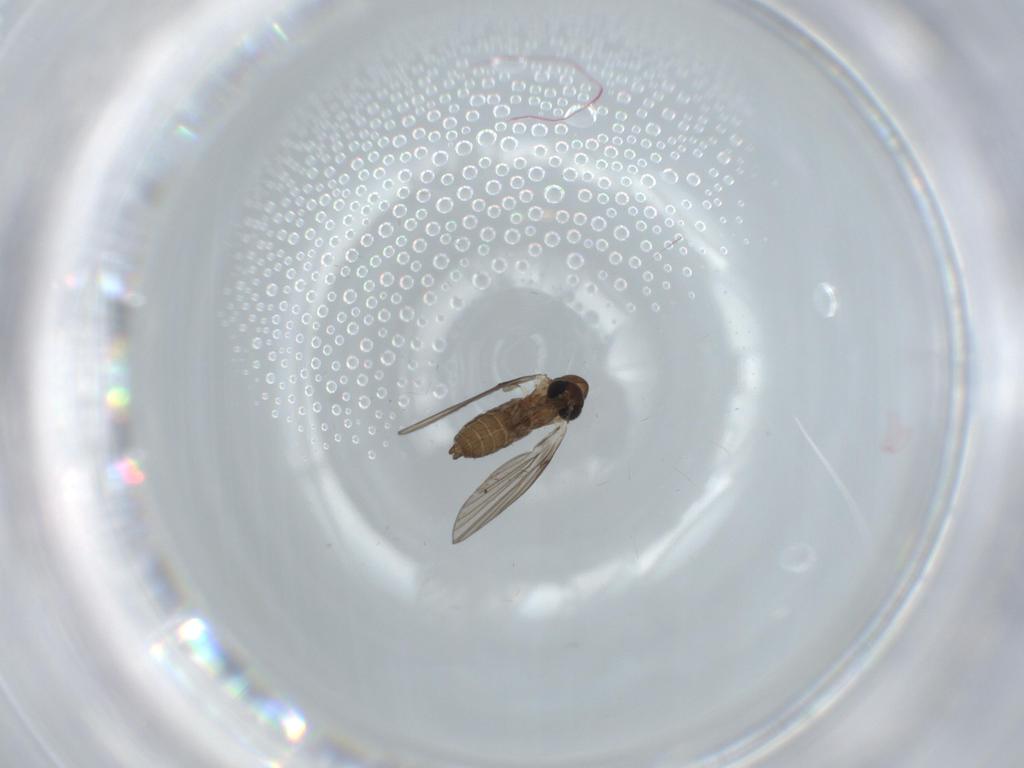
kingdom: Animalia
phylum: Arthropoda
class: Insecta
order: Diptera
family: Psychodidae
